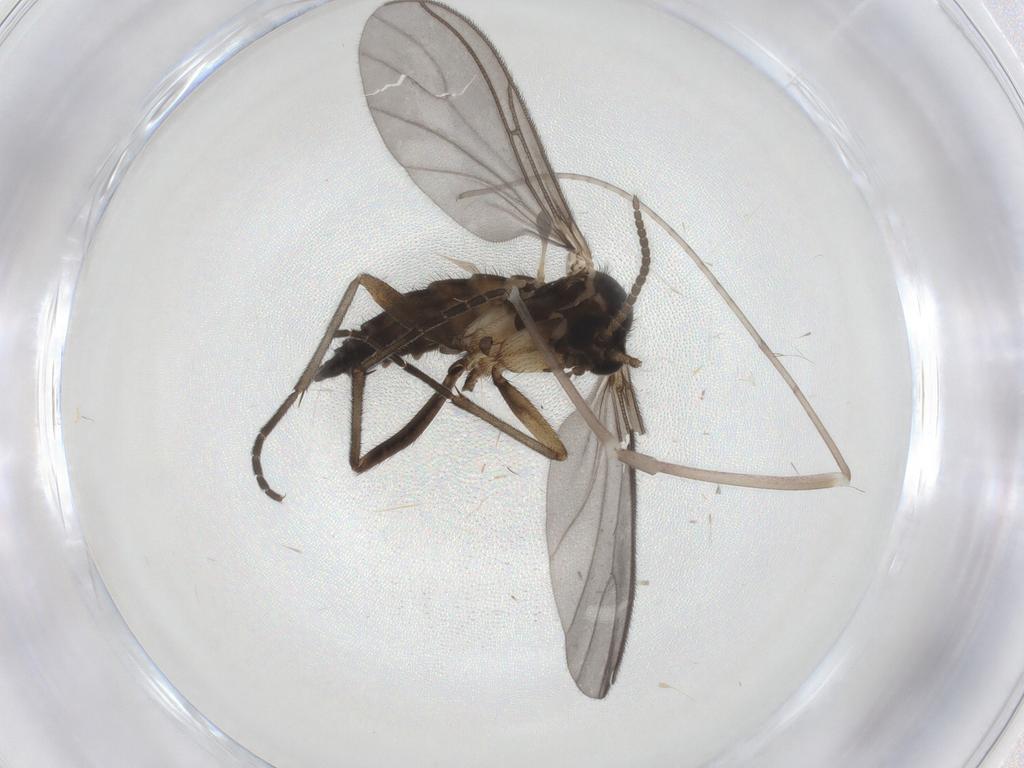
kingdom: Animalia
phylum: Arthropoda
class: Insecta
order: Diptera
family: Sciaridae
